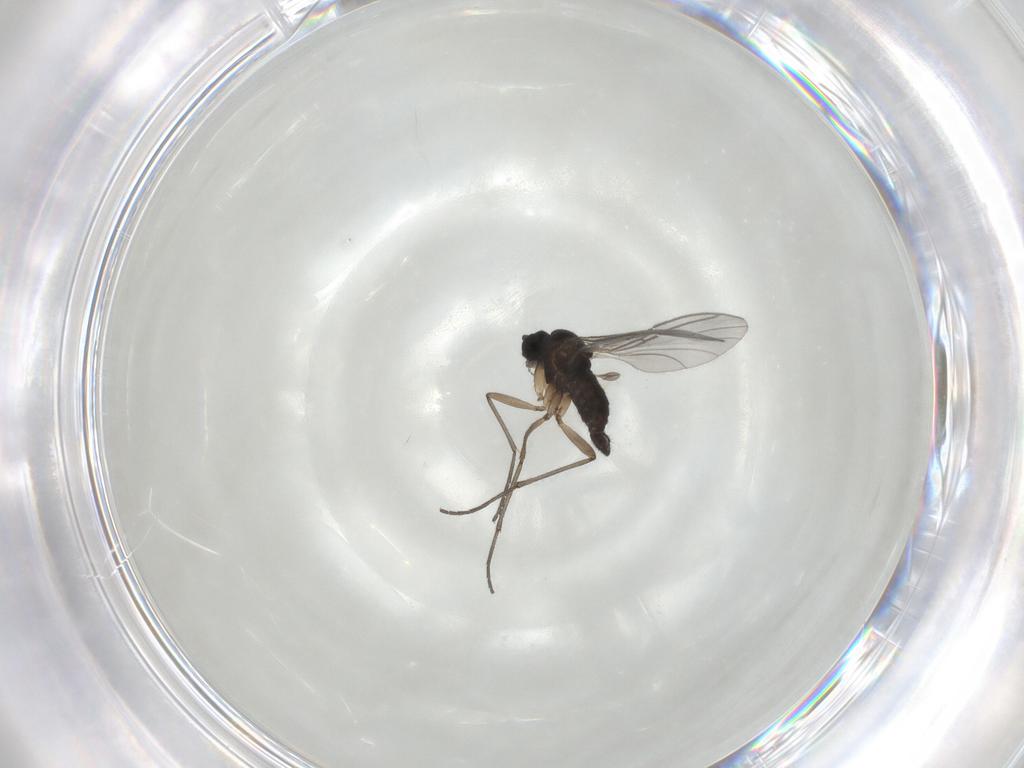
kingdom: Animalia
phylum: Arthropoda
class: Insecta
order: Diptera
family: Sciaridae
